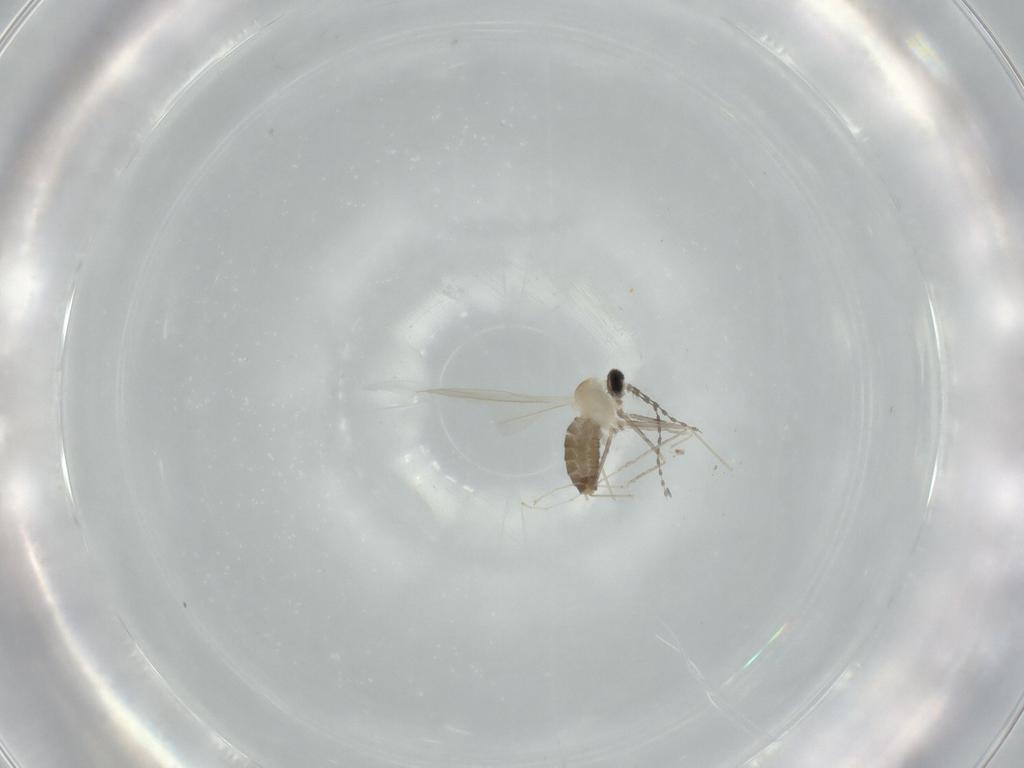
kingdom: Animalia
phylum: Arthropoda
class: Insecta
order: Diptera
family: Cecidomyiidae
